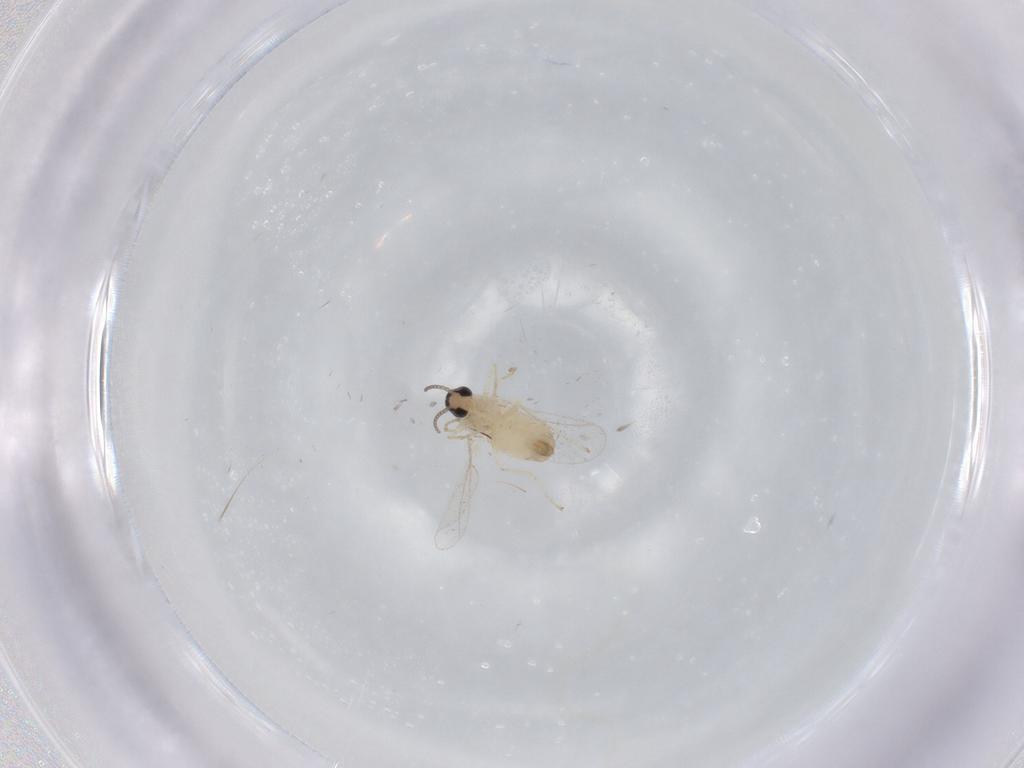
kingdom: Animalia
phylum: Arthropoda
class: Insecta
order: Diptera
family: Cecidomyiidae
